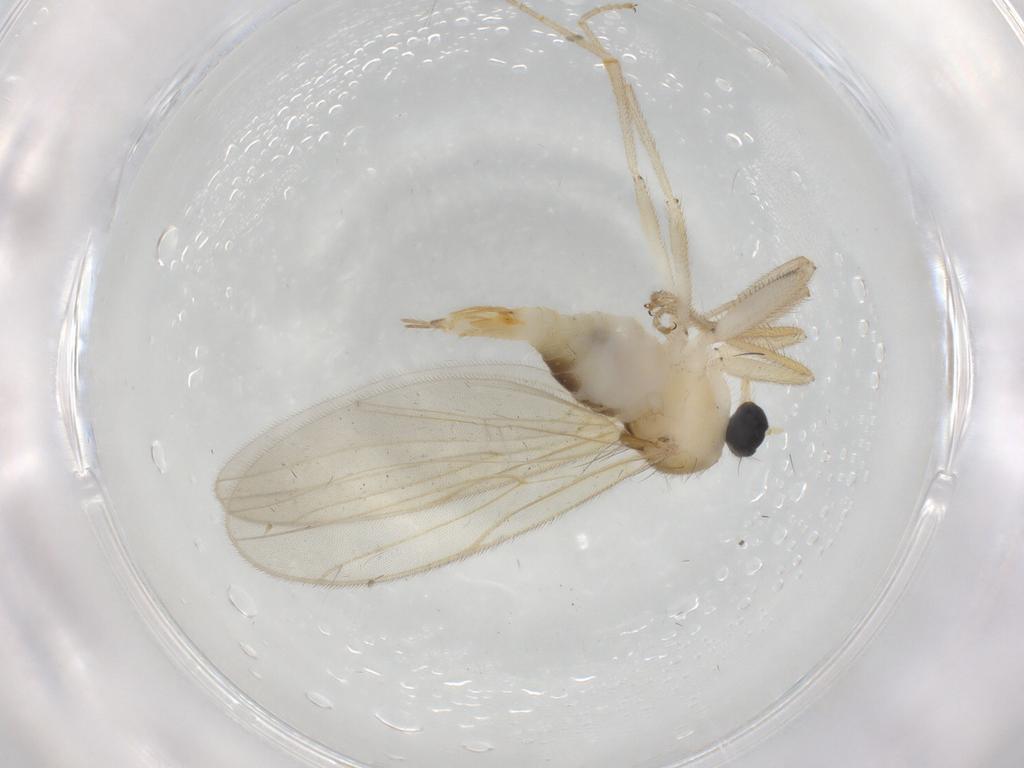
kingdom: Animalia
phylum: Arthropoda
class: Insecta
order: Diptera
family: Hybotidae
